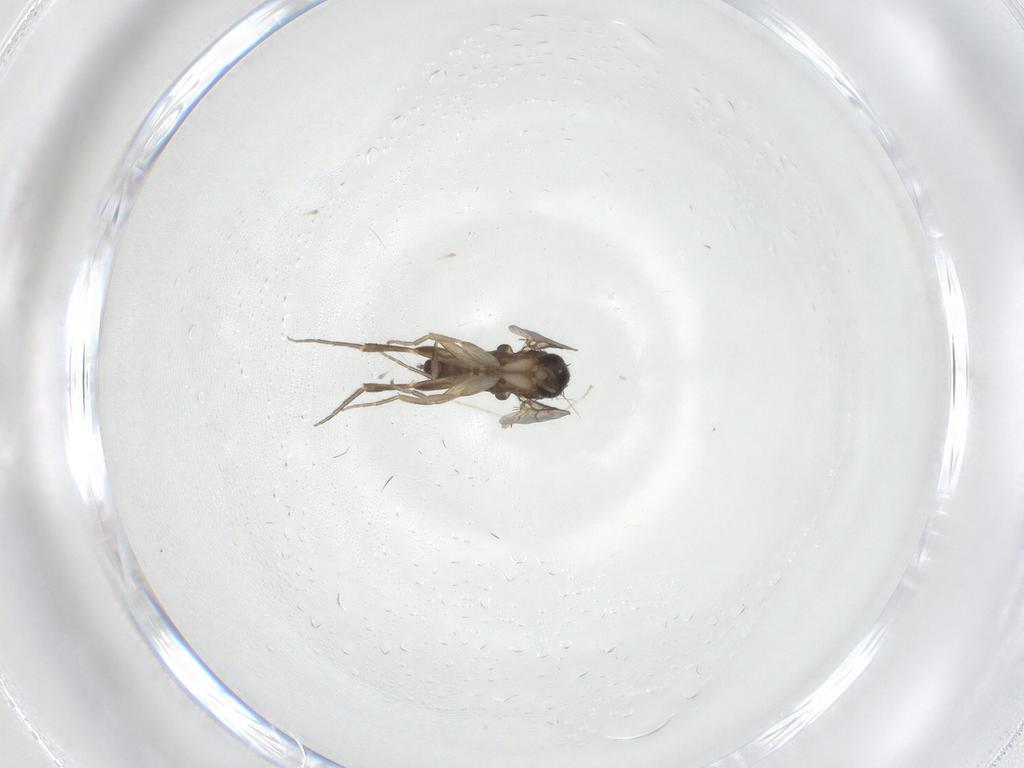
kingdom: Animalia
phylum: Arthropoda
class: Insecta
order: Diptera
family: Phoridae
